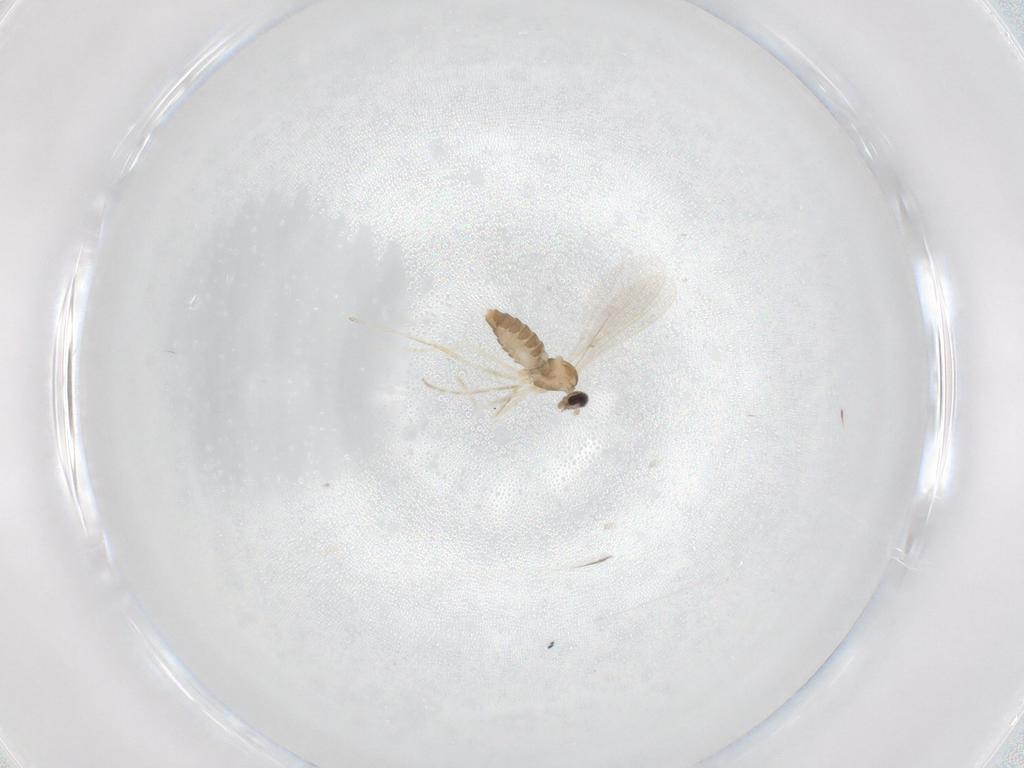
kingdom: Animalia
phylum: Arthropoda
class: Insecta
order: Diptera
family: Cecidomyiidae
